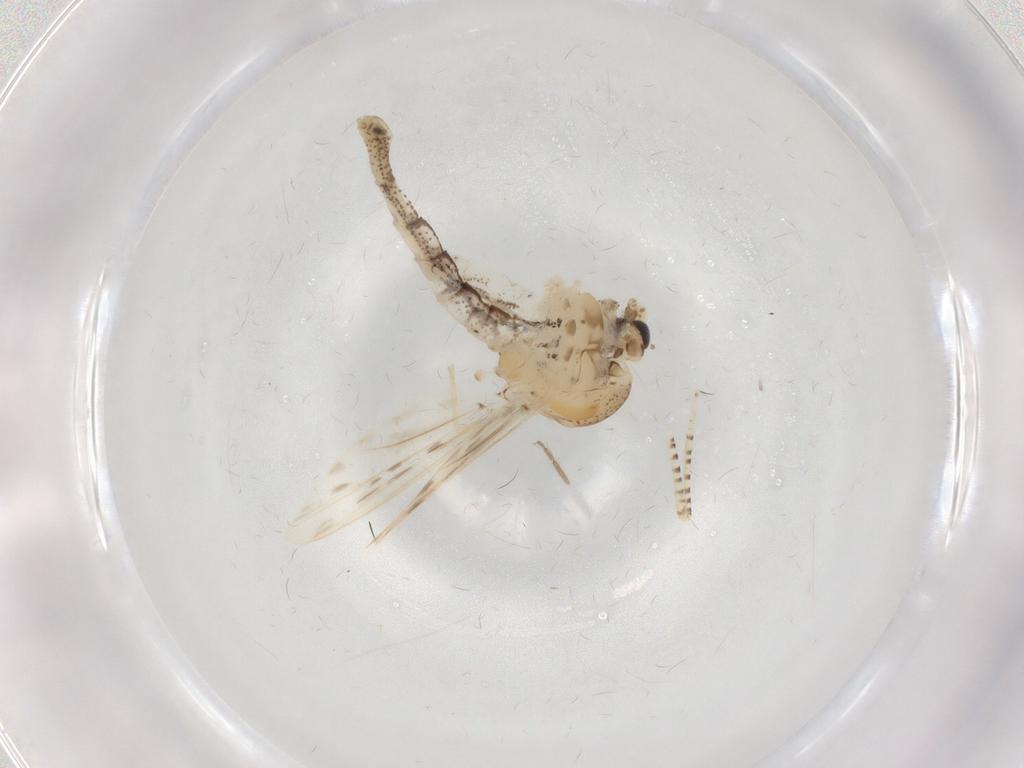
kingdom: Animalia
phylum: Arthropoda
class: Insecta
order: Diptera
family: Chaoboridae
